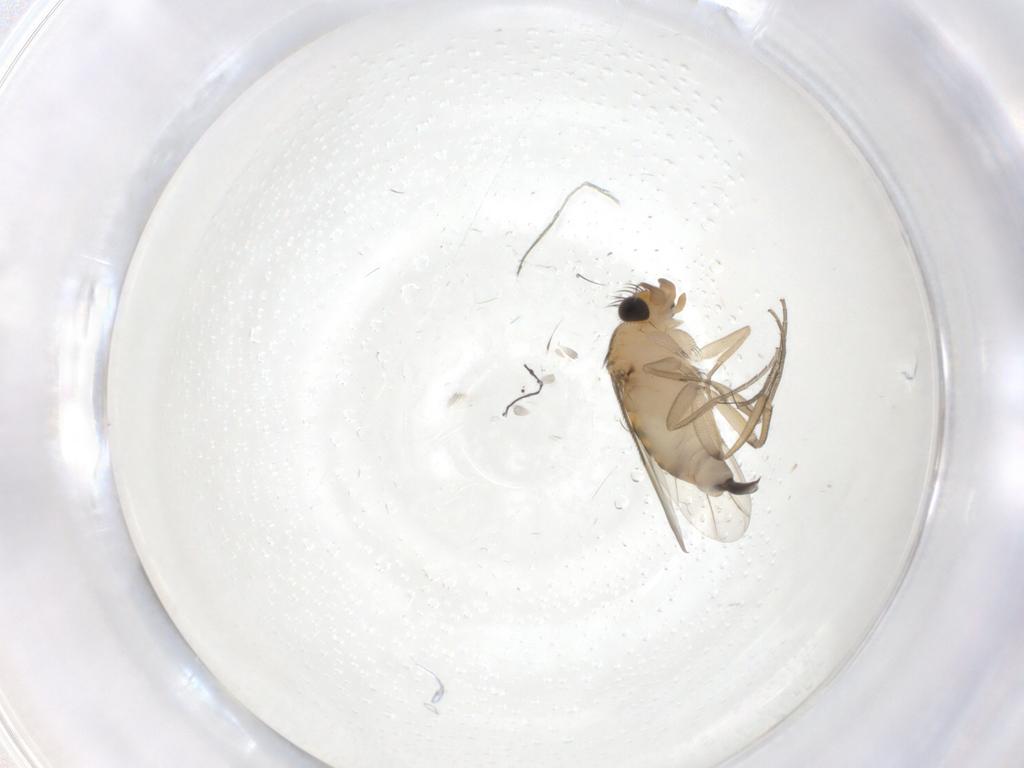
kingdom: Animalia
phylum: Arthropoda
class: Insecta
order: Diptera
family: Phoridae
